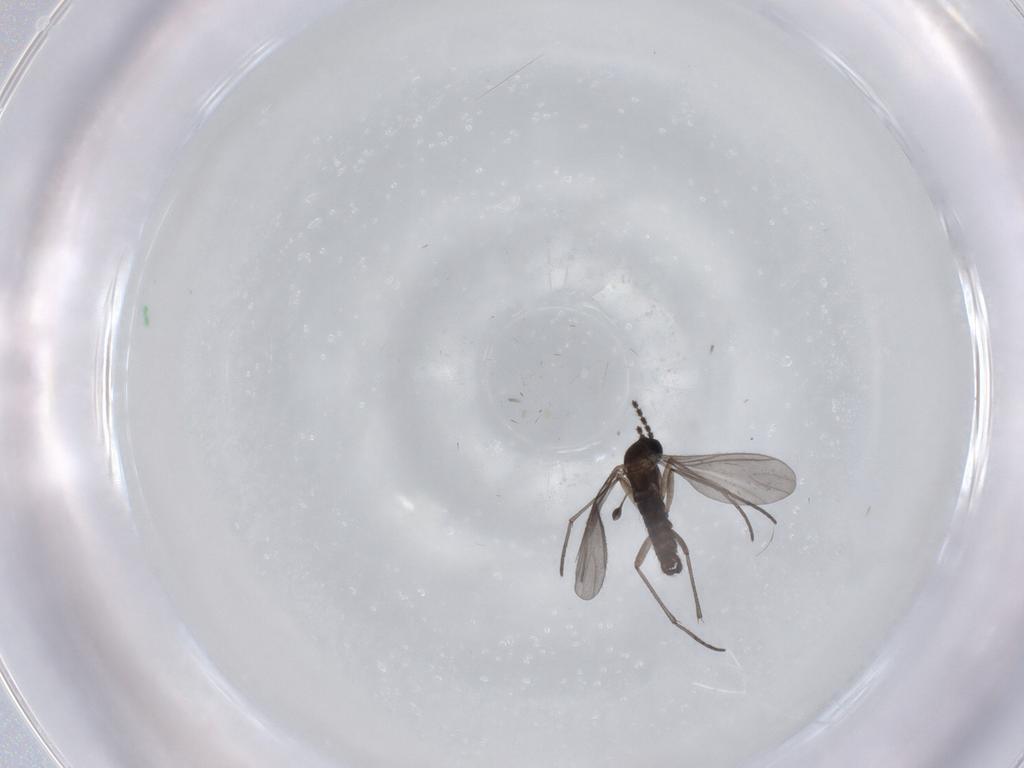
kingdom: Animalia
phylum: Arthropoda
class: Insecta
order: Diptera
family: Sciaridae
